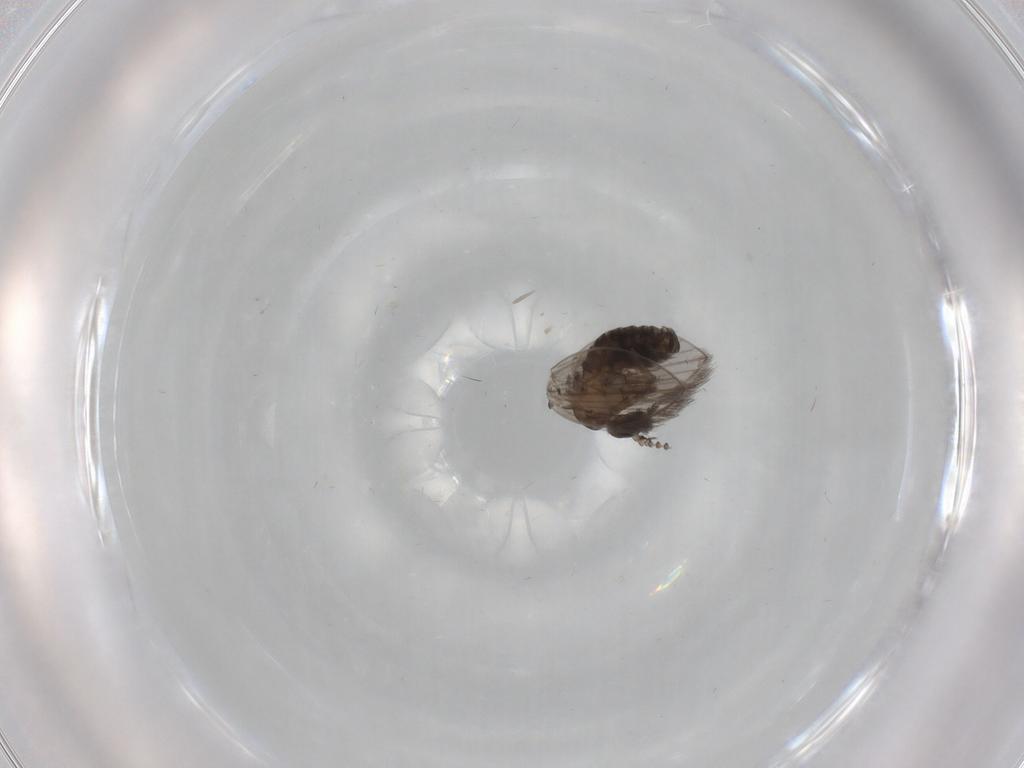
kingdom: Animalia
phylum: Arthropoda
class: Insecta
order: Diptera
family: Psychodidae
